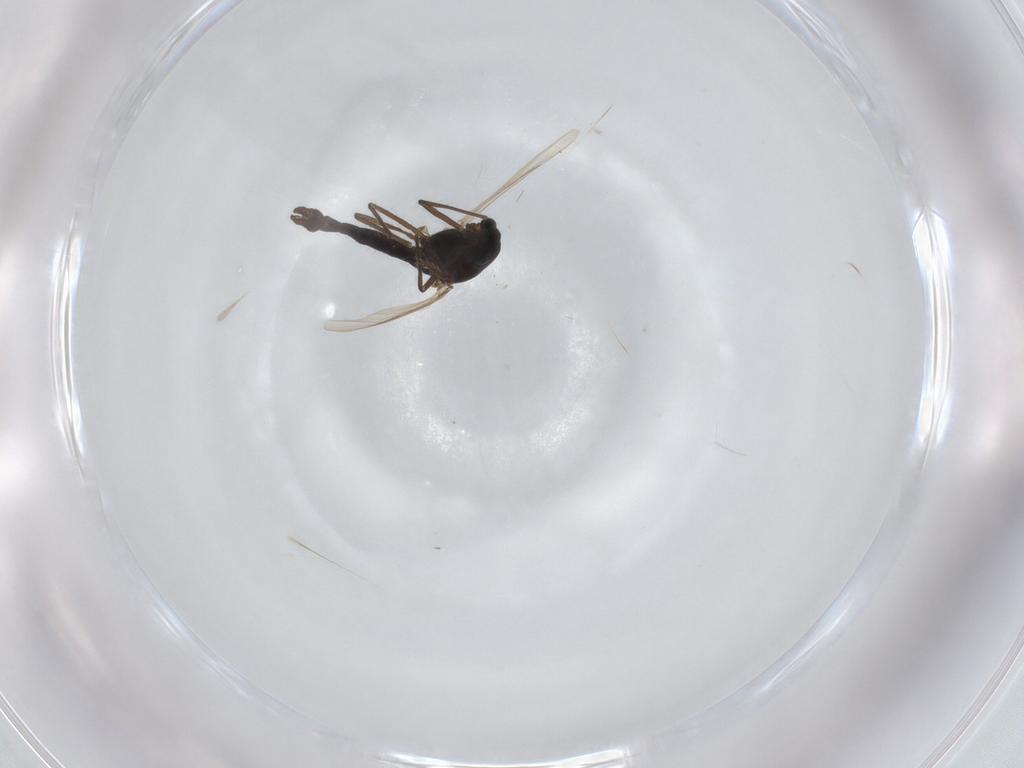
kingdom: Animalia
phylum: Arthropoda
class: Insecta
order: Diptera
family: Chironomidae
